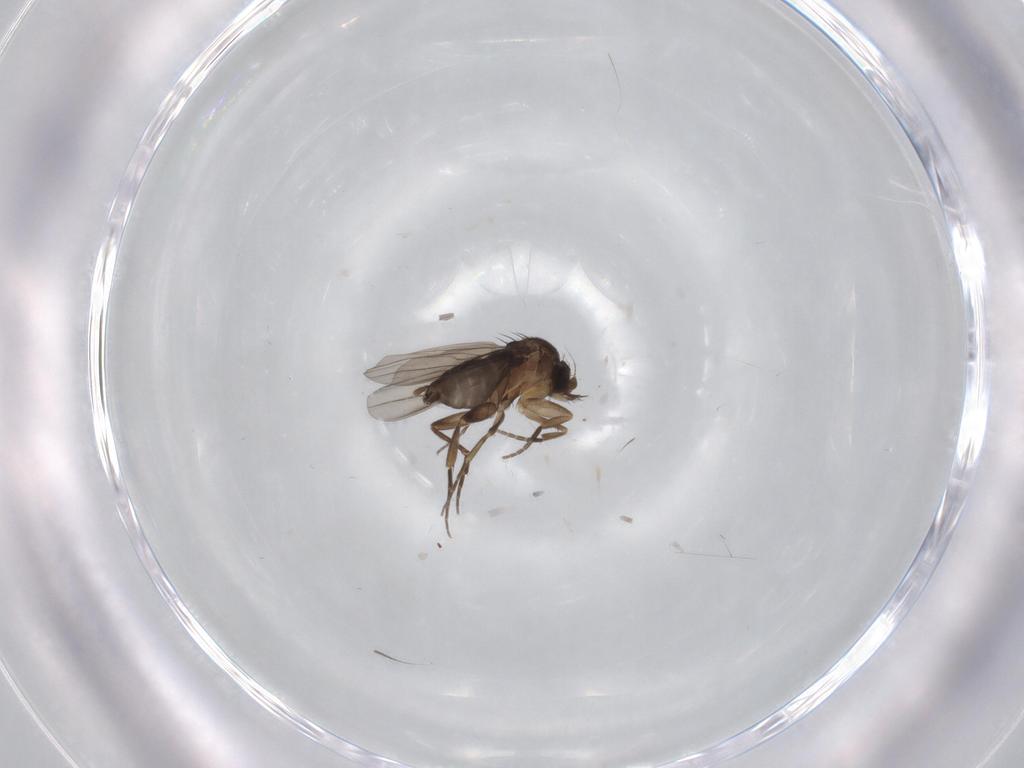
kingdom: Animalia
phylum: Arthropoda
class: Insecta
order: Diptera
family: Phoridae
